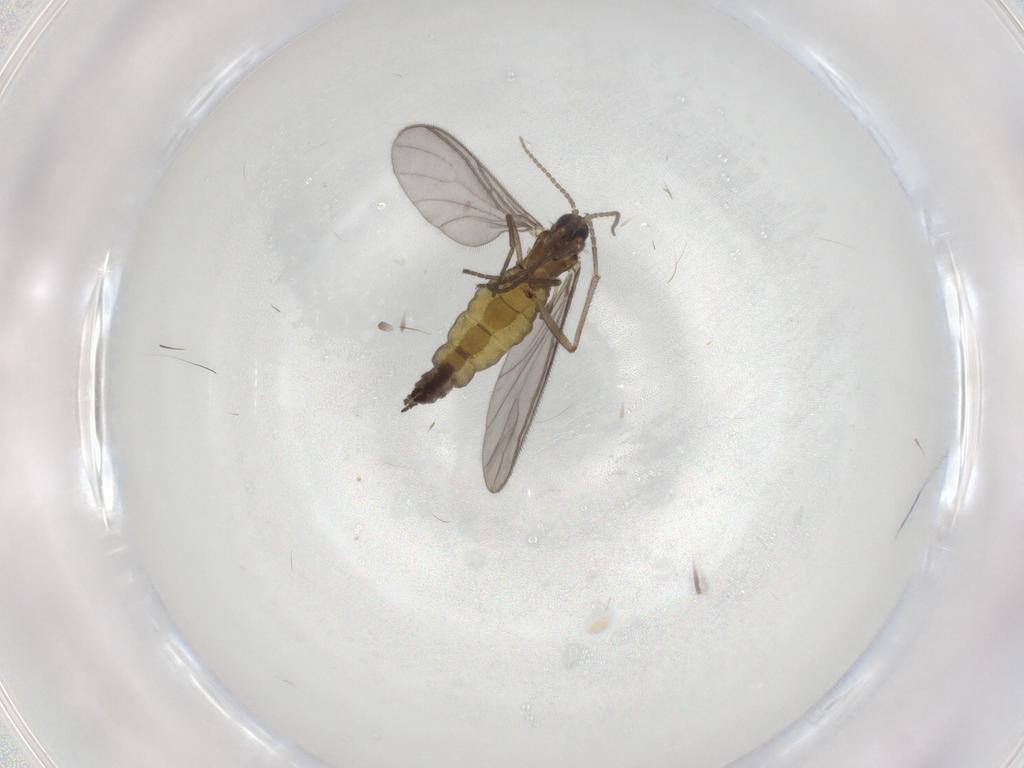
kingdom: Animalia
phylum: Arthropoda
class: Insecta
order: Diptera
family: Sciaridae
